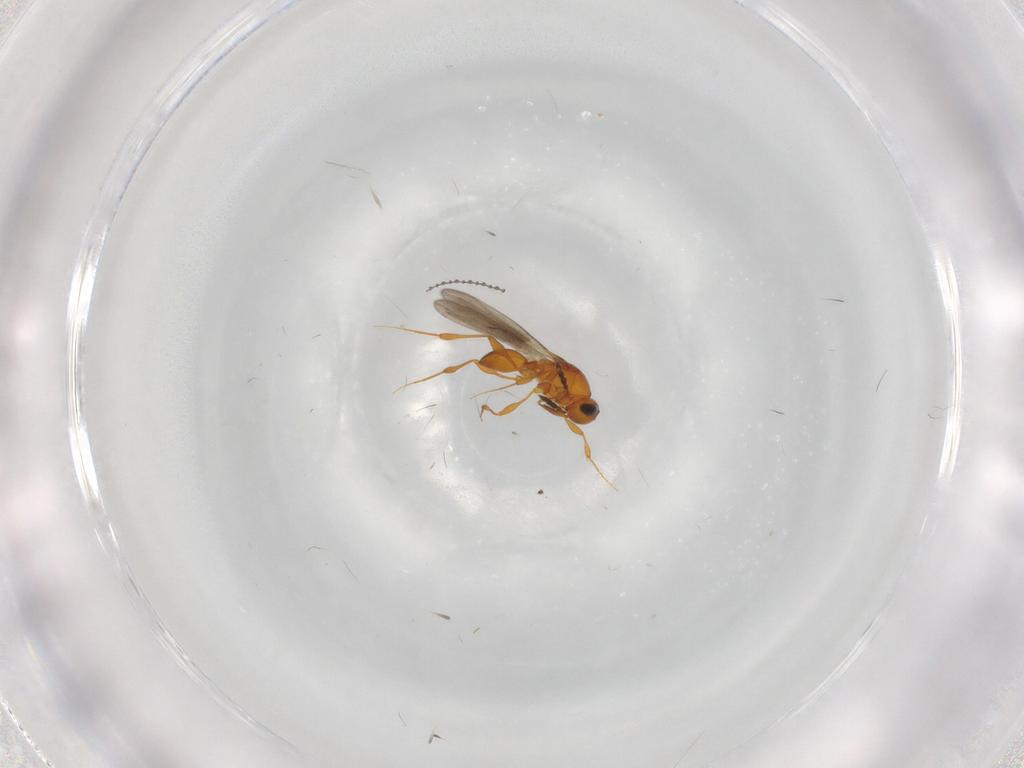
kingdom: Animalia
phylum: Arthropoda
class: Insecta
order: Hymenoptera
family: Platygastridae
